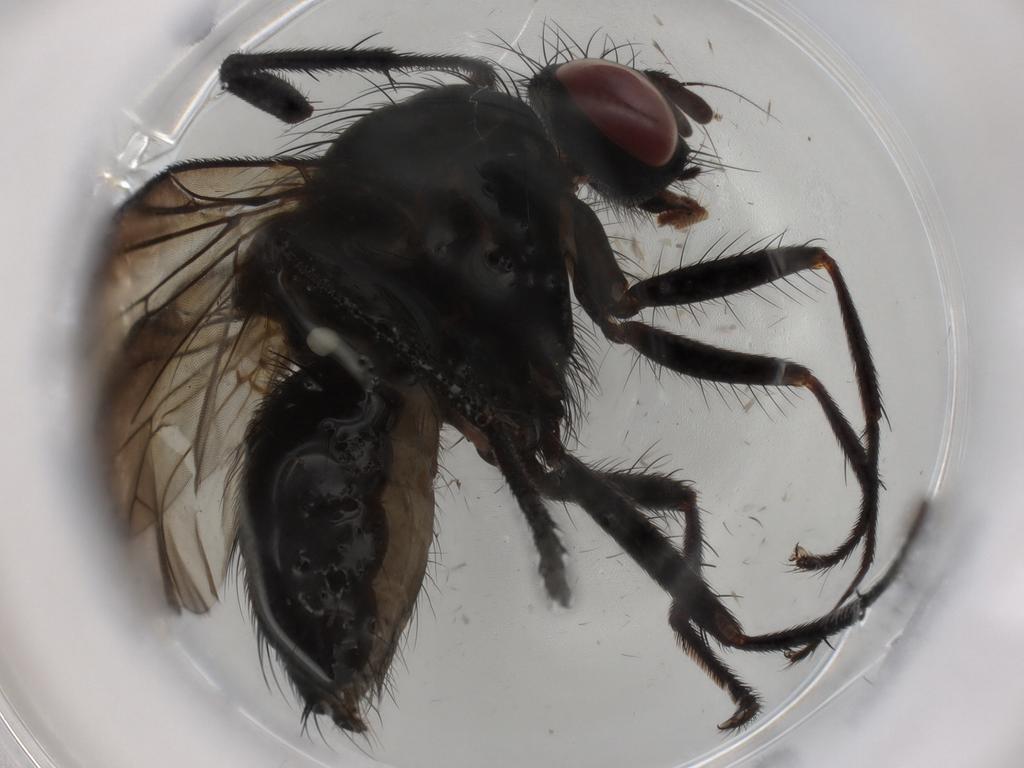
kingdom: Animalia
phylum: Arthropoda
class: Insecta
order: Diptera
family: Anthomyiidae
